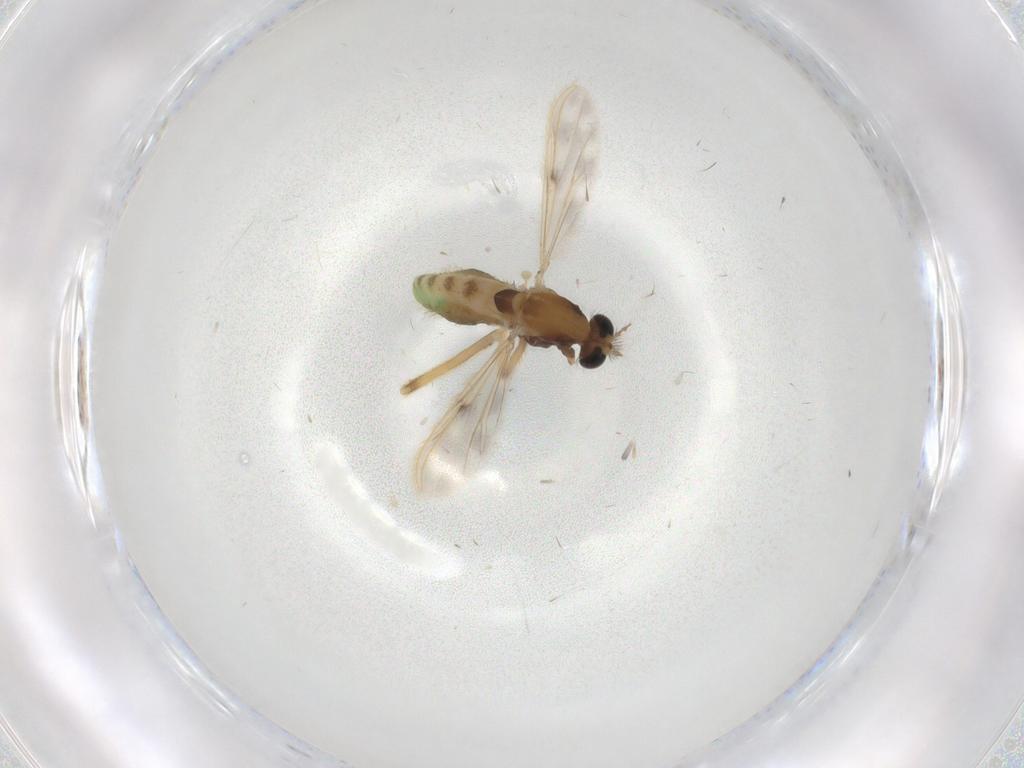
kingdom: Animalia
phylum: Arthropoda
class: Insecta
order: Diptera
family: Chironomidae
